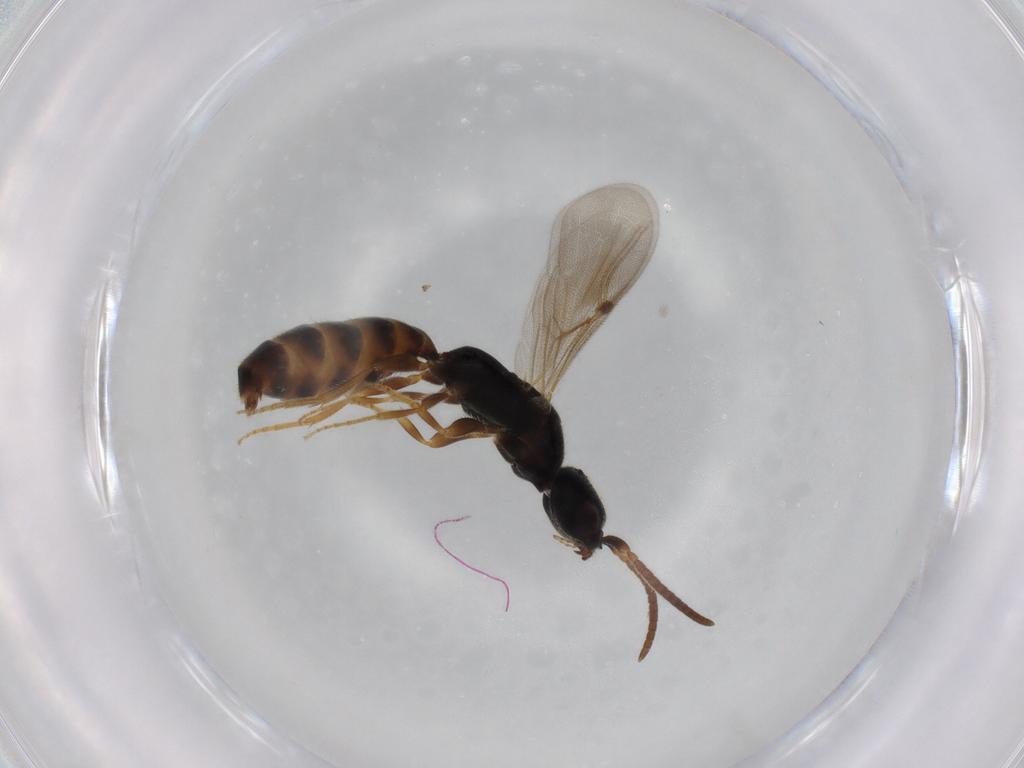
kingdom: Animalia
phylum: Arthropoda
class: Insecta
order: Hymenoptera
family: Bethylidae
